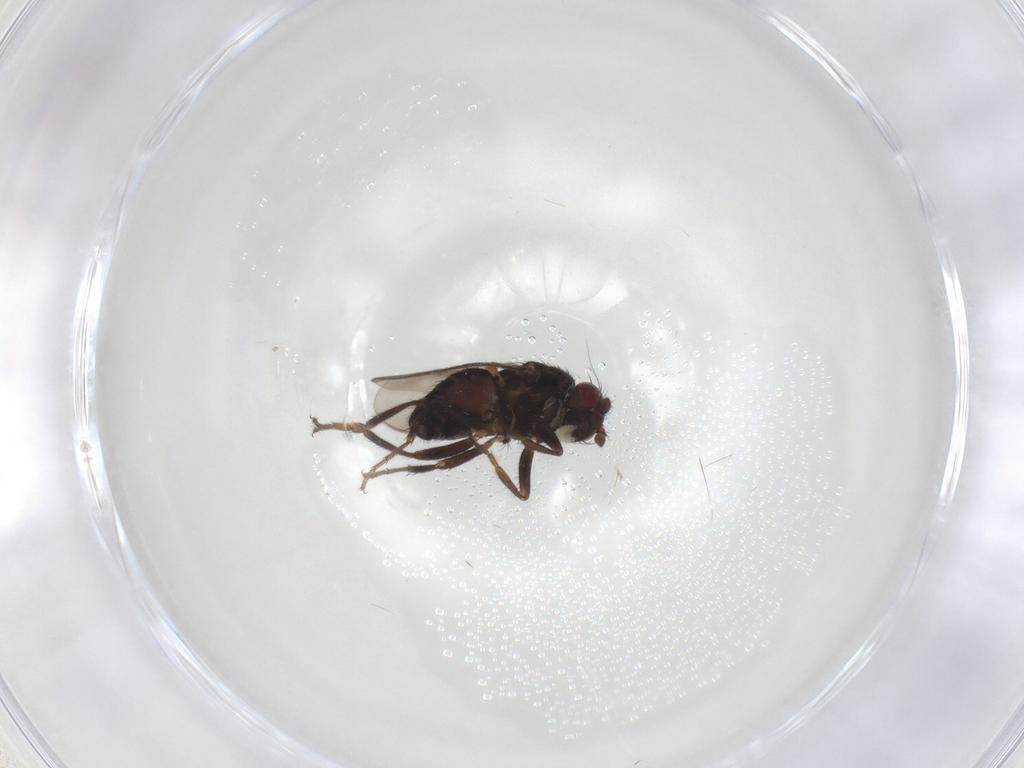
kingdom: Animalia
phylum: Arthropoda
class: Insecta
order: Diptera
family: Sphaeroceridae
